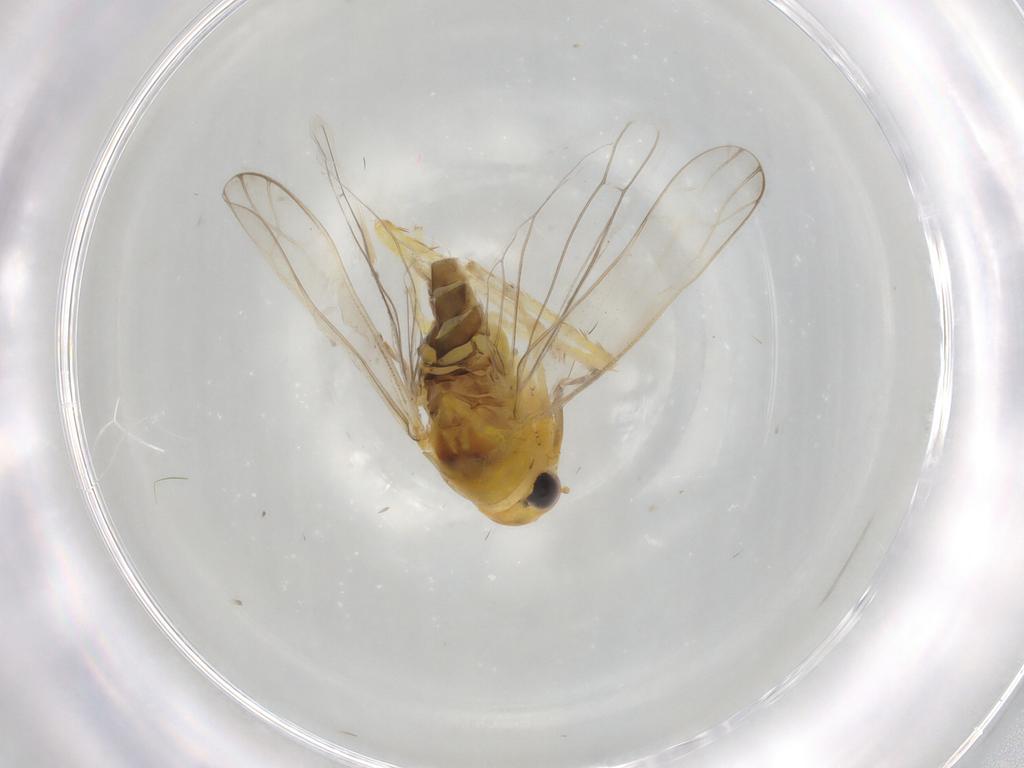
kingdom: Animalia
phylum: Arthropoda
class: Insecta
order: Hemiptera
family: Cicadellidae
